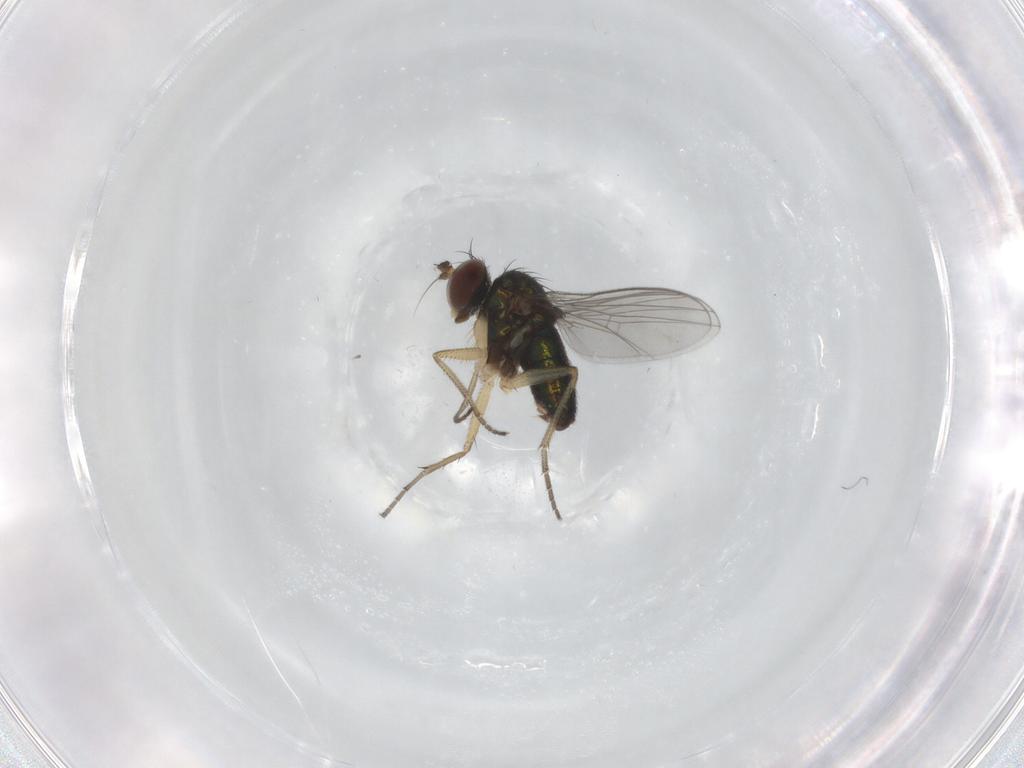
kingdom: Animalia
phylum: Arthropoda
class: Insecta
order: Diptera
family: Dolichopodidae
